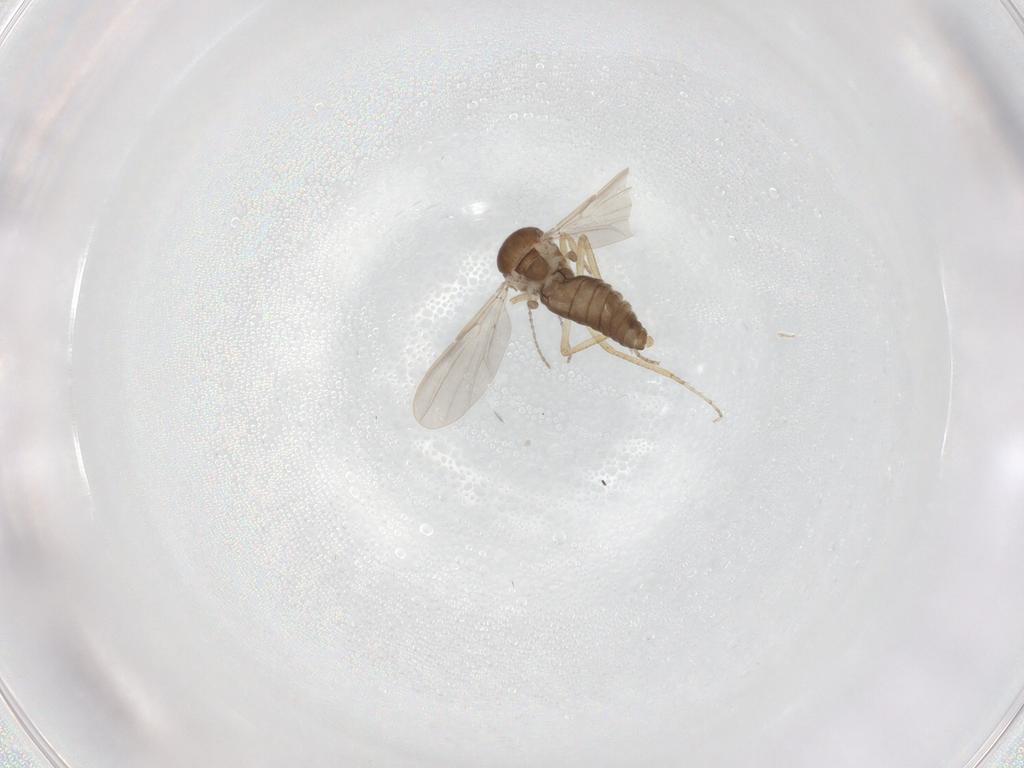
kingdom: Animalia
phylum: Arthropoda
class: Insecta
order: Diptera
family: Ceratopogonidae
